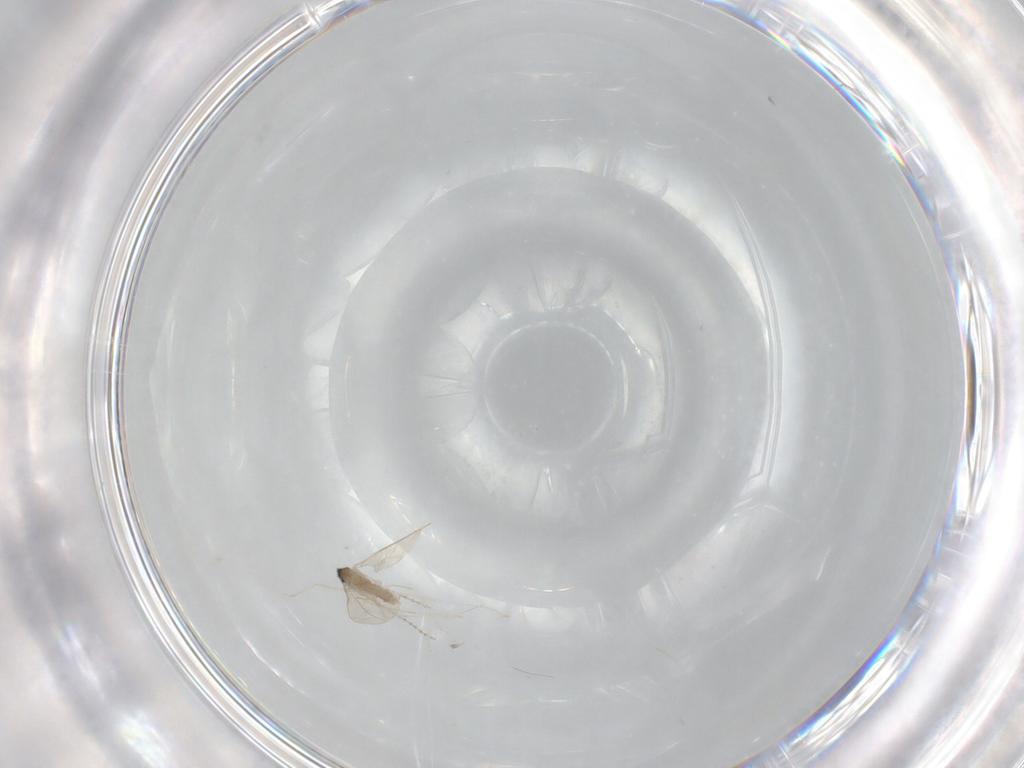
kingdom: Animalia
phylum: Arthropoda
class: Insecta
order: Diptera
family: Cecidomyiidae
